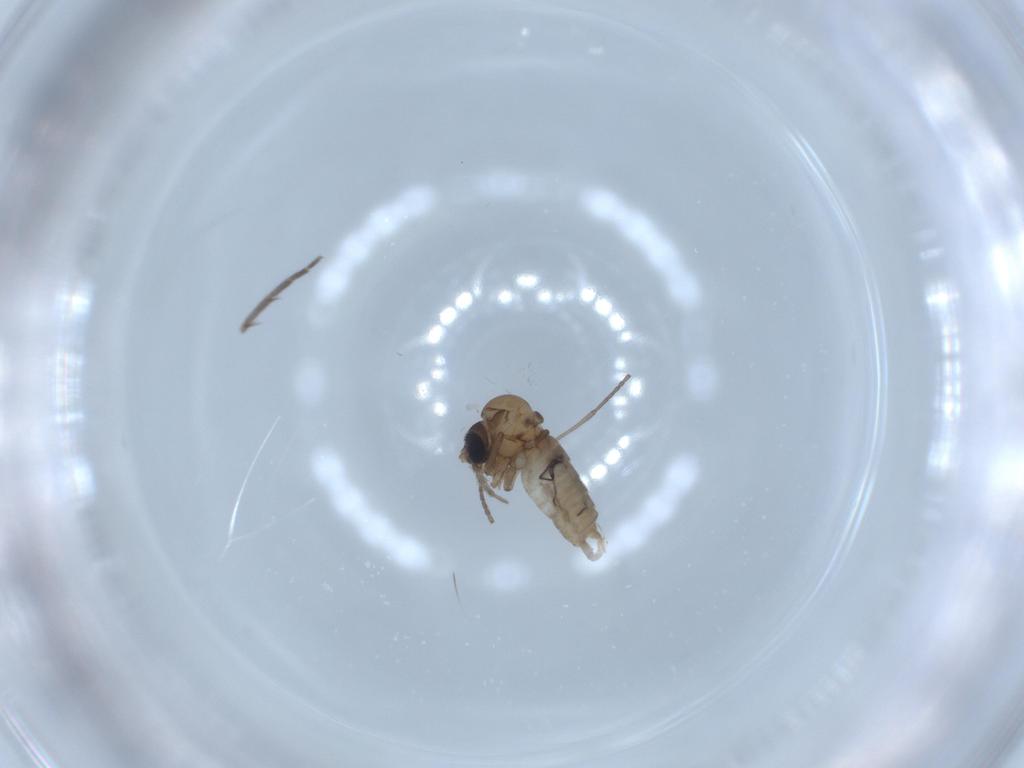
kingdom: Animalia
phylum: Arthropoda
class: Insecta
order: Diptera
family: Psychodidae
